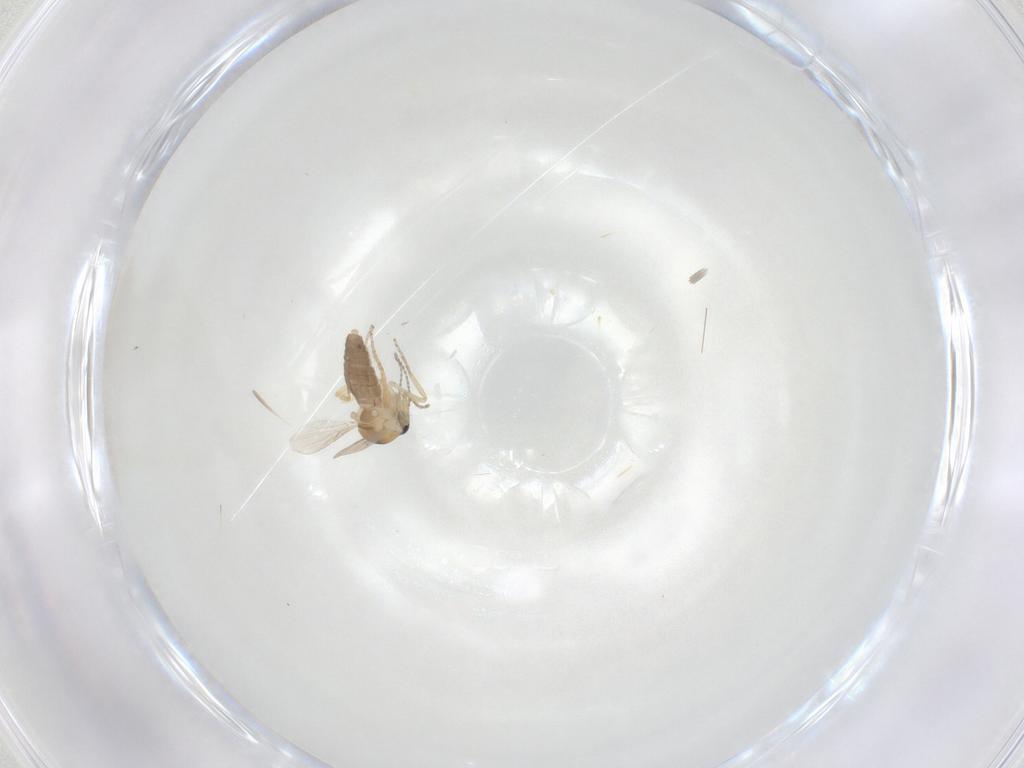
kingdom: Animalia
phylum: Arthropoda
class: Insecta
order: Diptera
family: Ceratopogonidae
